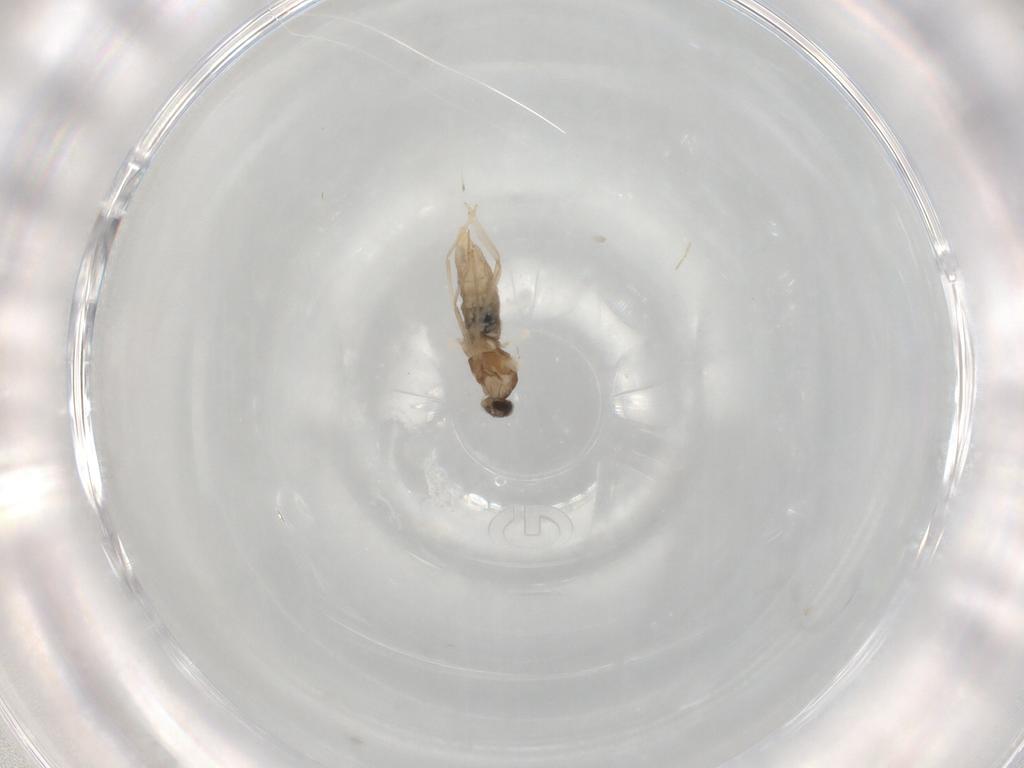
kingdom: Animalia
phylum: Arthropoda
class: Insecta
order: Diptera
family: Cecidomyiidae
